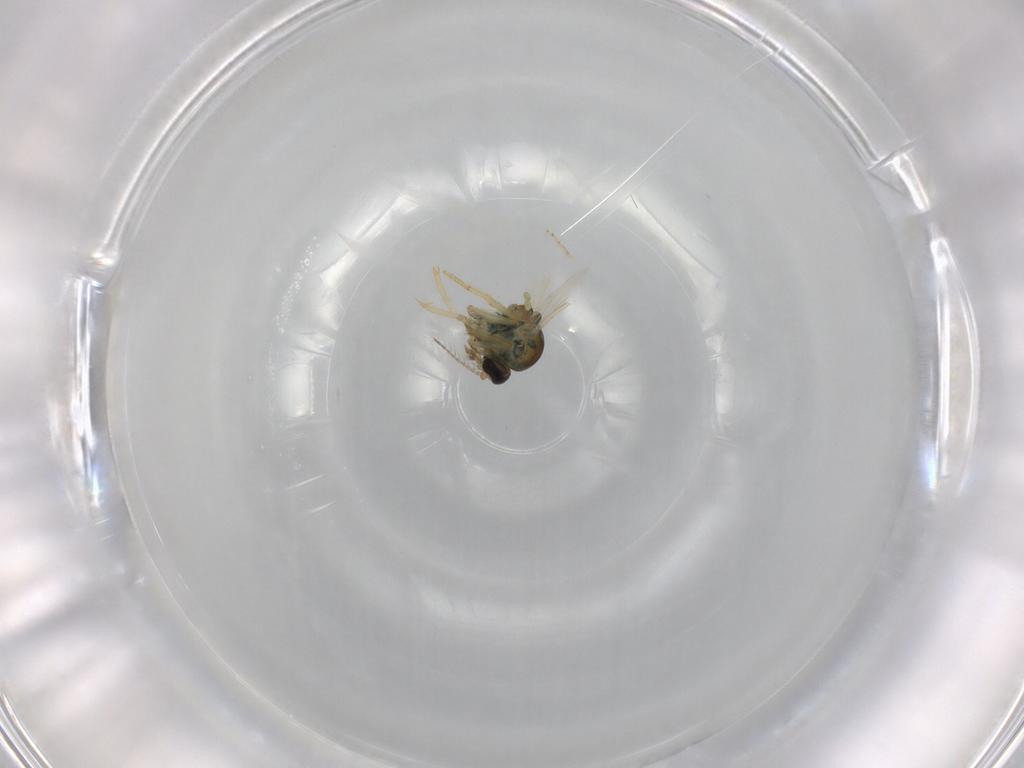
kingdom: Animalia
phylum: Arthropoda
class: Insecta
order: Diptera
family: Ceratopogonidae
